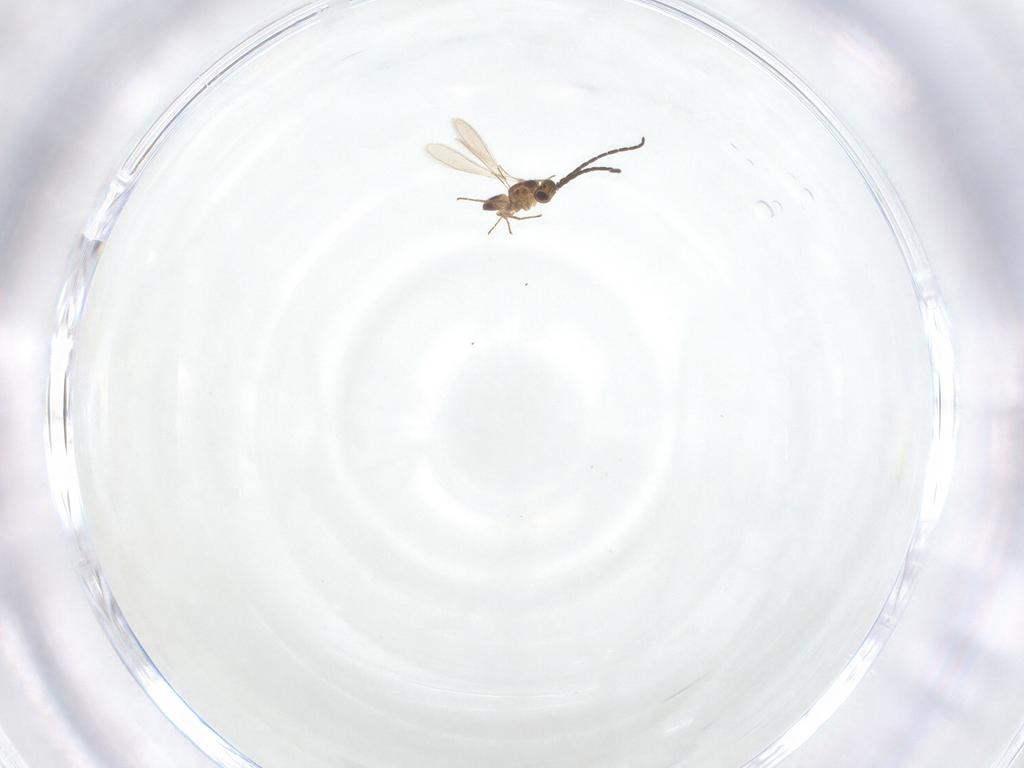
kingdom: Animalia
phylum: Arthropoda
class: Insecta
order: Hymenoptera
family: Mymaridae
